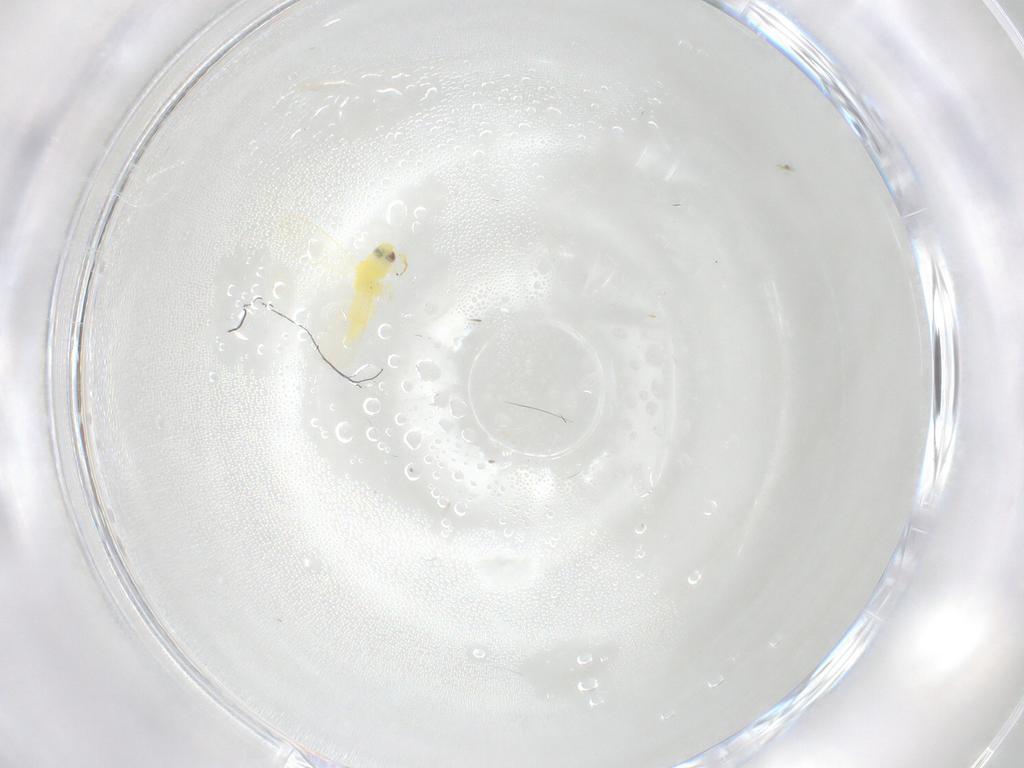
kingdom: Animalia
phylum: Arthropoda
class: Insecta
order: Hemiptera
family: Aleyrodidae
